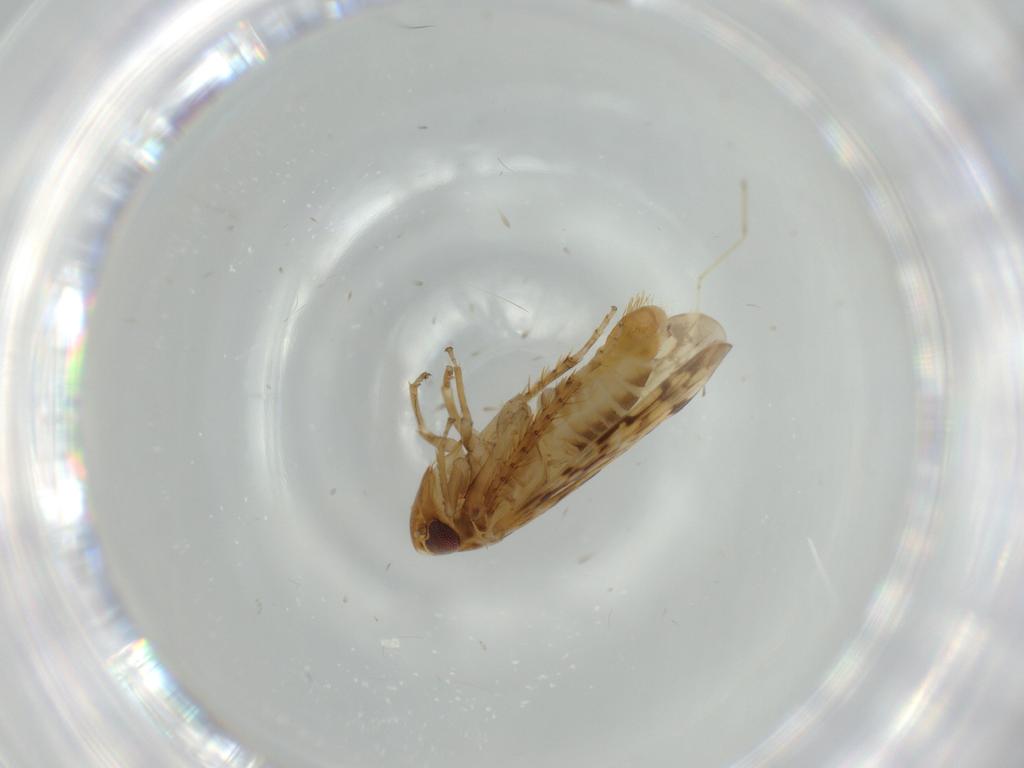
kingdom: Animalia
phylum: Arthropoda
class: Insecta
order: Hemiptera
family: Cicadellidae
